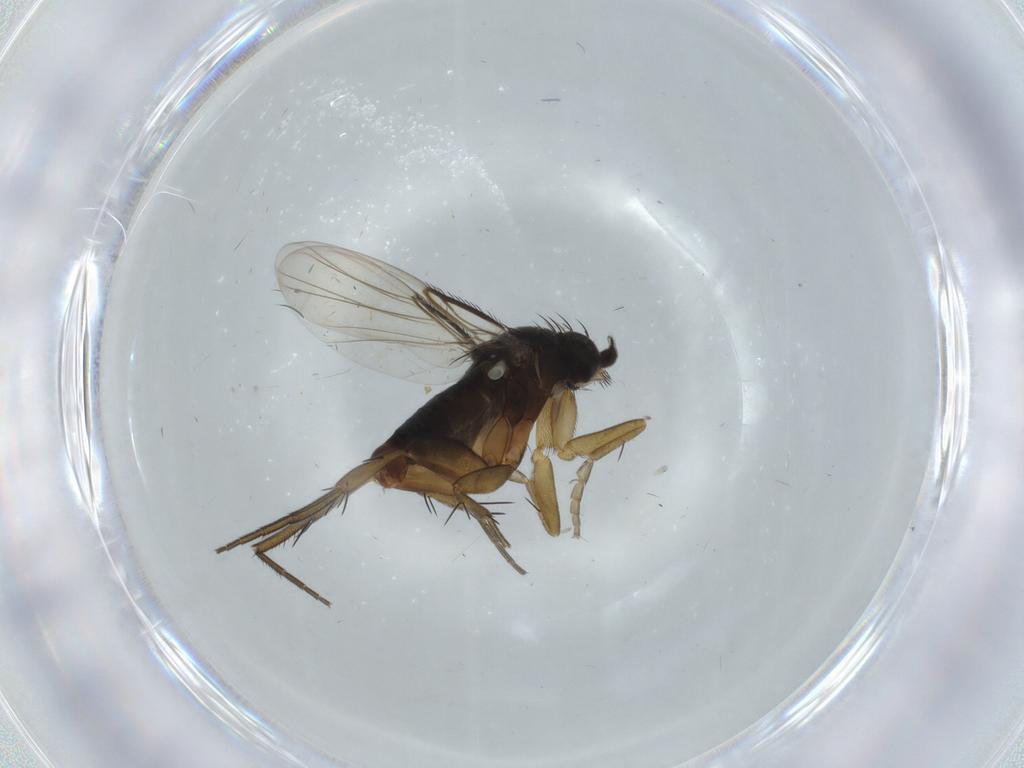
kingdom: Animalia
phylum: Arthropoda
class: Insecta
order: Diptera
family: Phoridae
